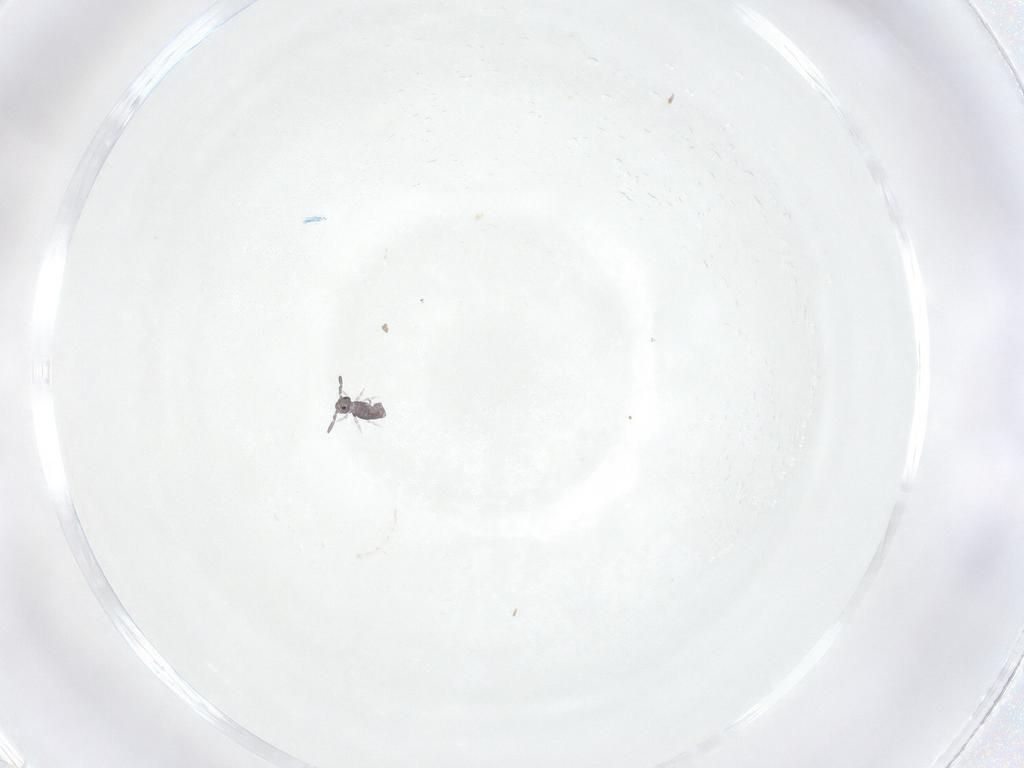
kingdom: Animalia
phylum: Arthropoda
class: Collembola
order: Symphypleona
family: Katiannidae
